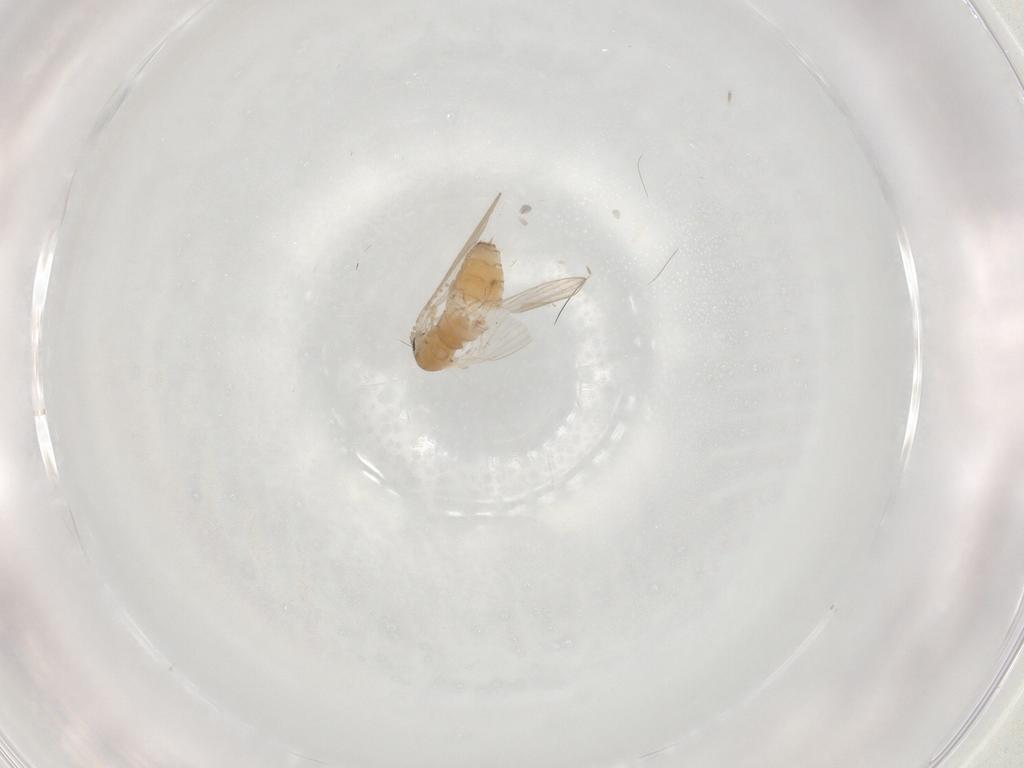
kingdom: Animalia
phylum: Arthropoda
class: Insecta
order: Diptera
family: Psychodidae
